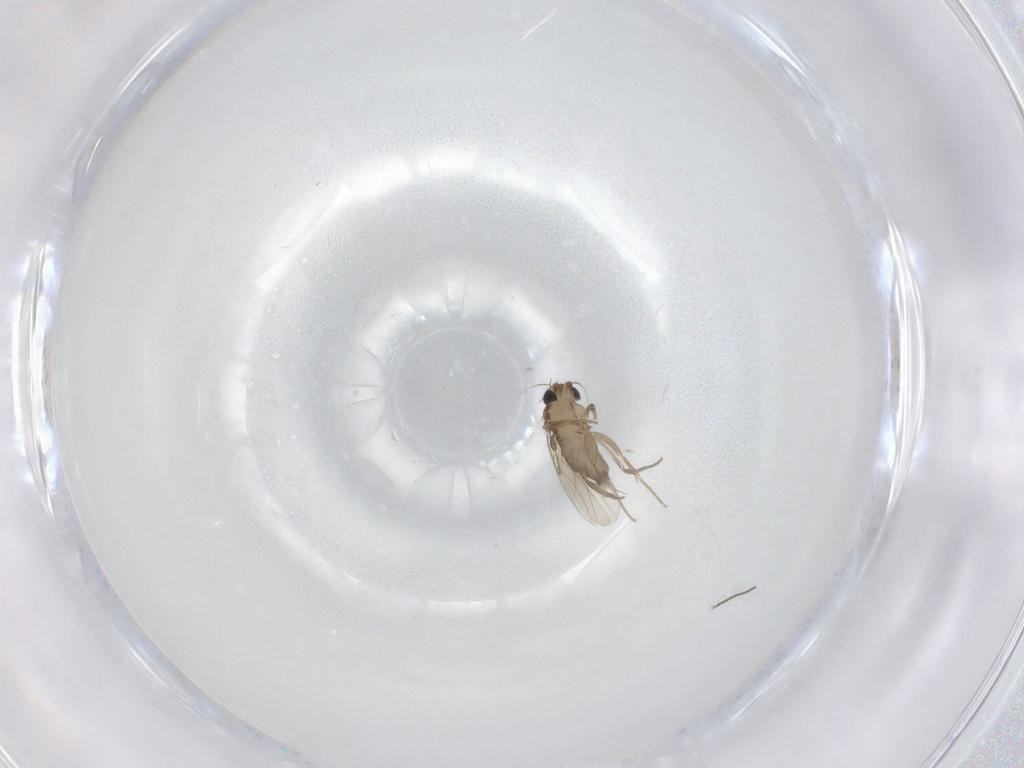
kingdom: Animalia
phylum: Arthropoda
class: Insecta
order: Diptera
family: Phoridae
